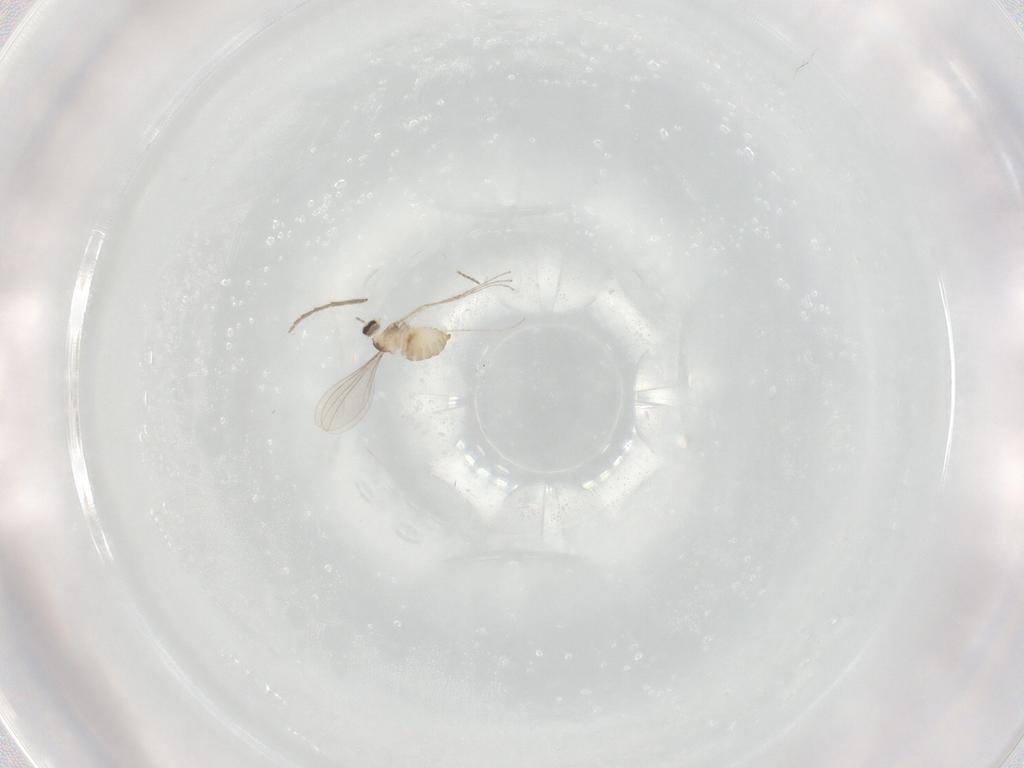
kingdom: Animalia
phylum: Arthropoda
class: Insecta
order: Diptera
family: Cecidomyiidae
